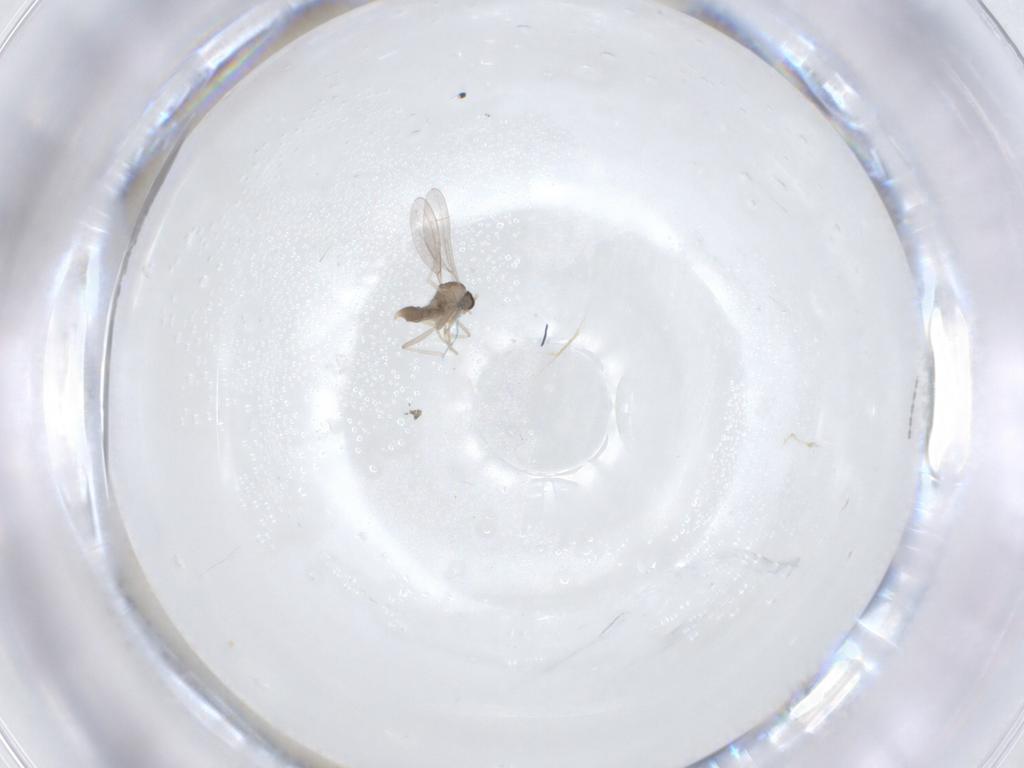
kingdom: Animalia
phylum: Arthropoda
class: Insecta
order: Diptera
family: Cecidomyiidae
